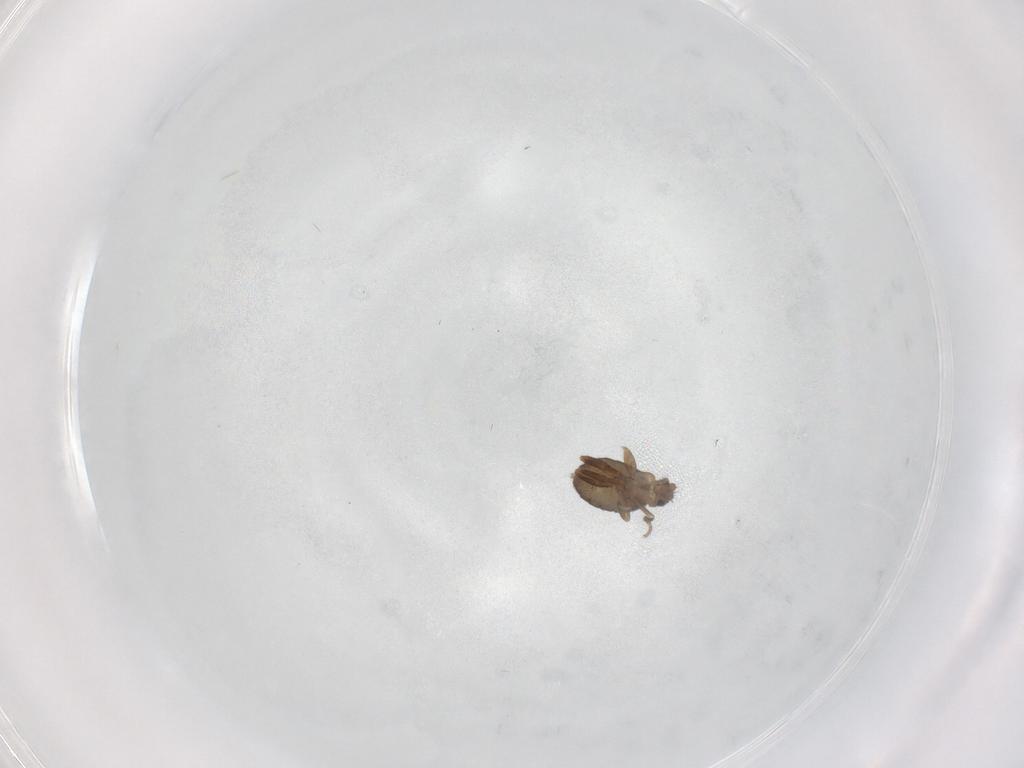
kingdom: Animalia
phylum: Arthropoda
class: Insecta
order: Diptera
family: Phoridae
